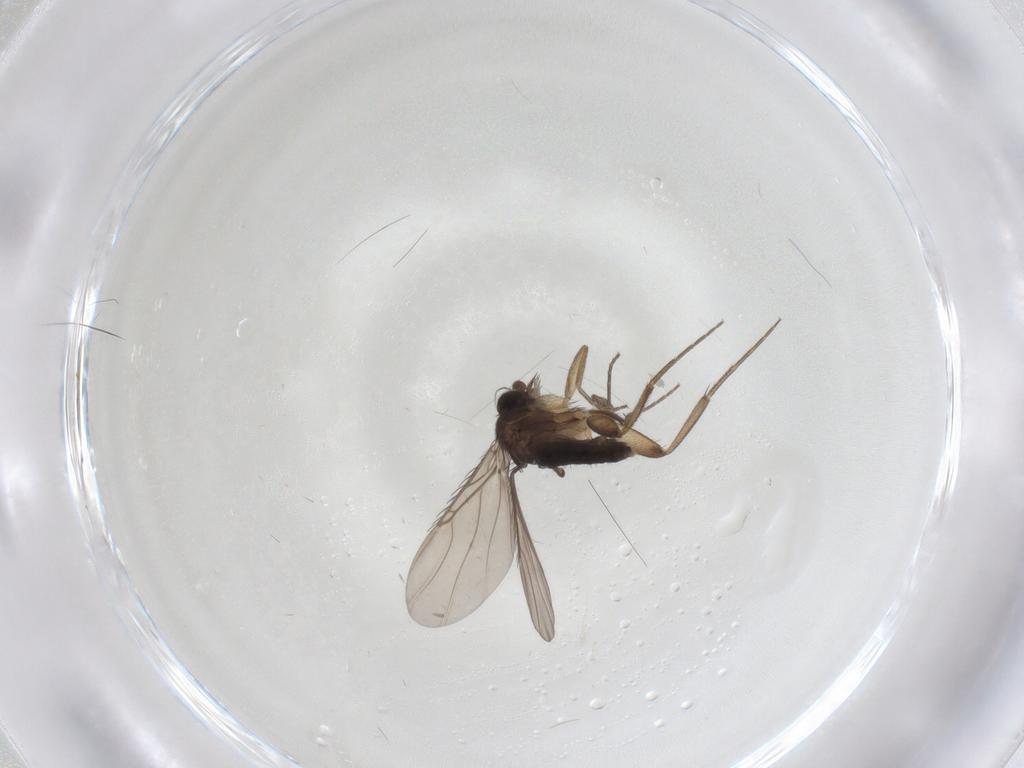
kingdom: Animalia
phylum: Arthropoda
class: Insecta
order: Diptera
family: Phoridae
